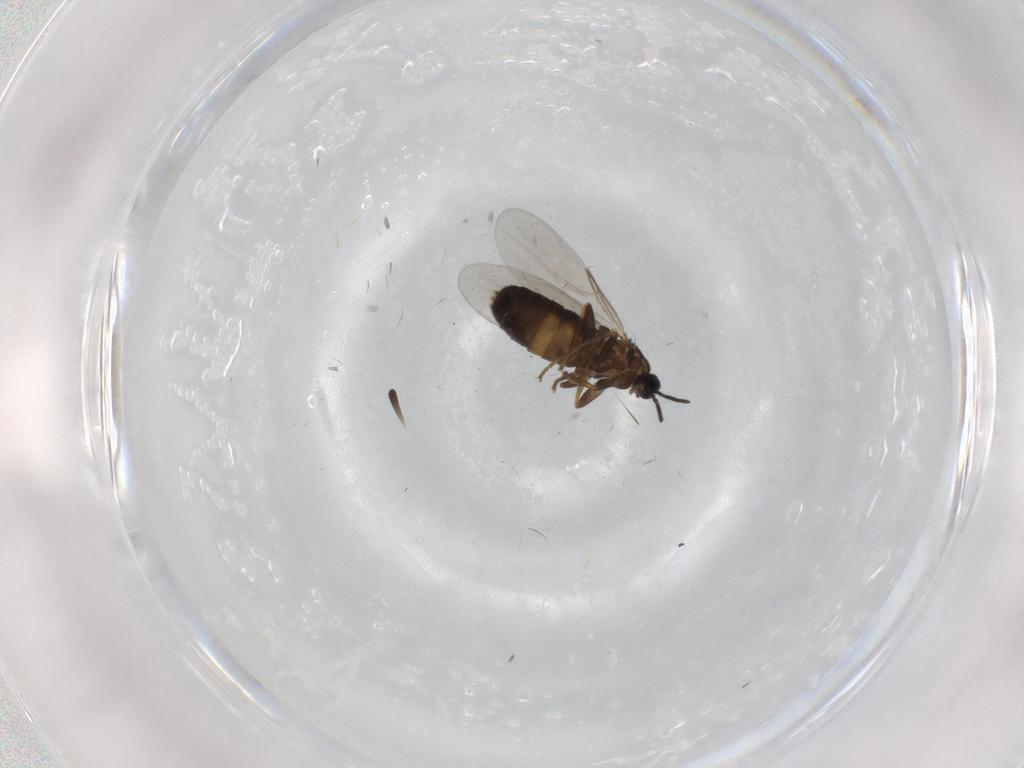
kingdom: Animalia
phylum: Arthropoda
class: Insecta
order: Diptera
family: Scatopsidae
